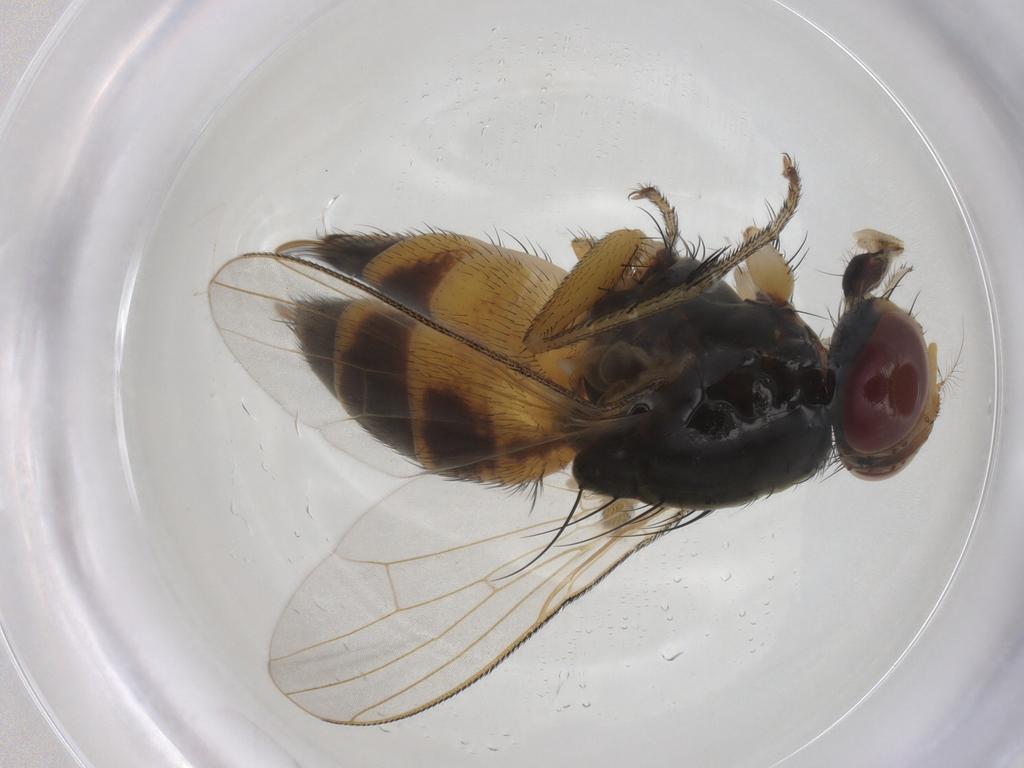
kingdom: Animalia
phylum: Arthropoda
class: Insecta
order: Diptera
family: Muscidae
